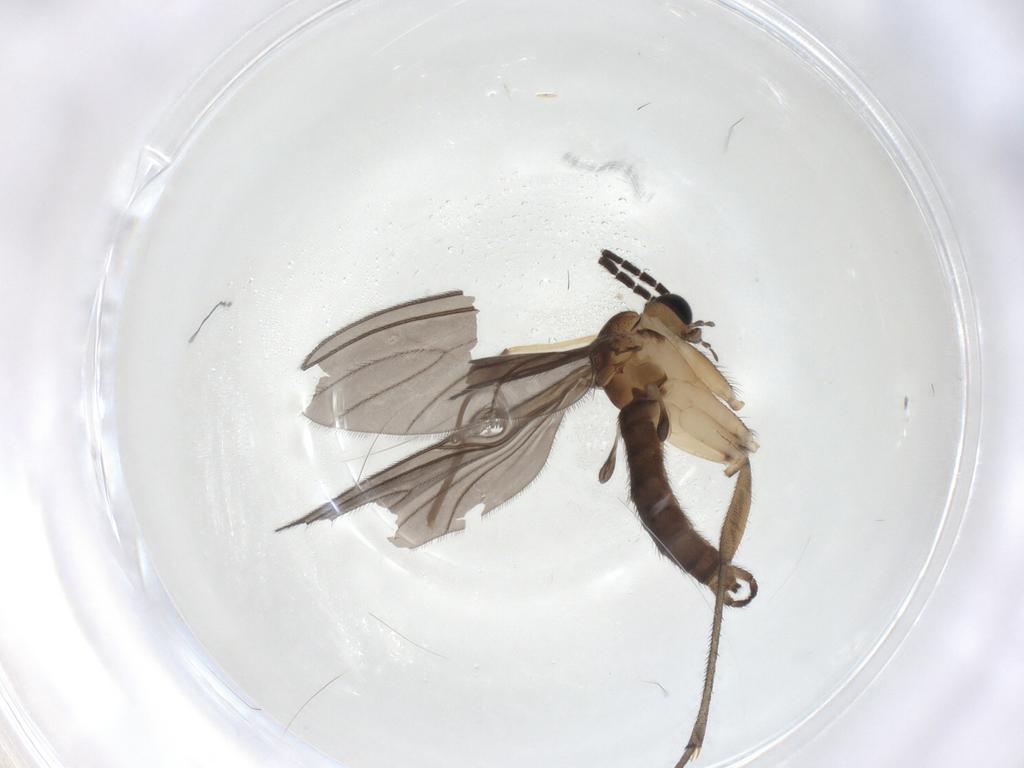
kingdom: Animalia
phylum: Arthropoda
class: Insecta
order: Diptera
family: Chironomidae
